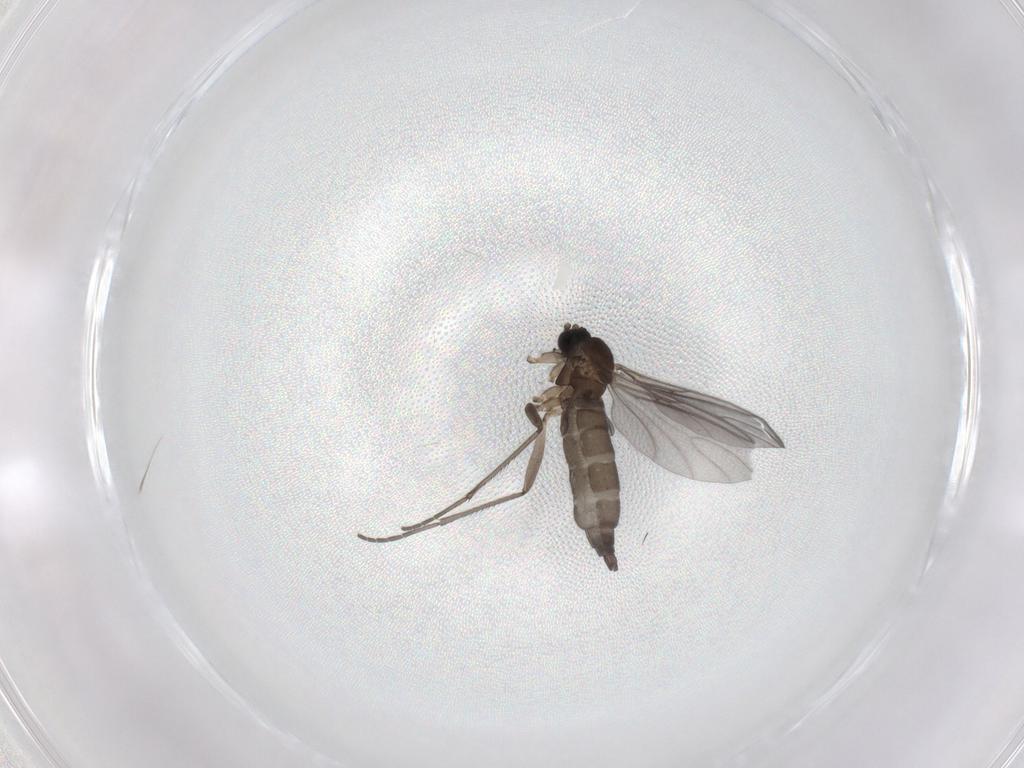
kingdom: Animalia
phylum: Arthropoda
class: Insecta
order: Diptera
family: Sciaridae
